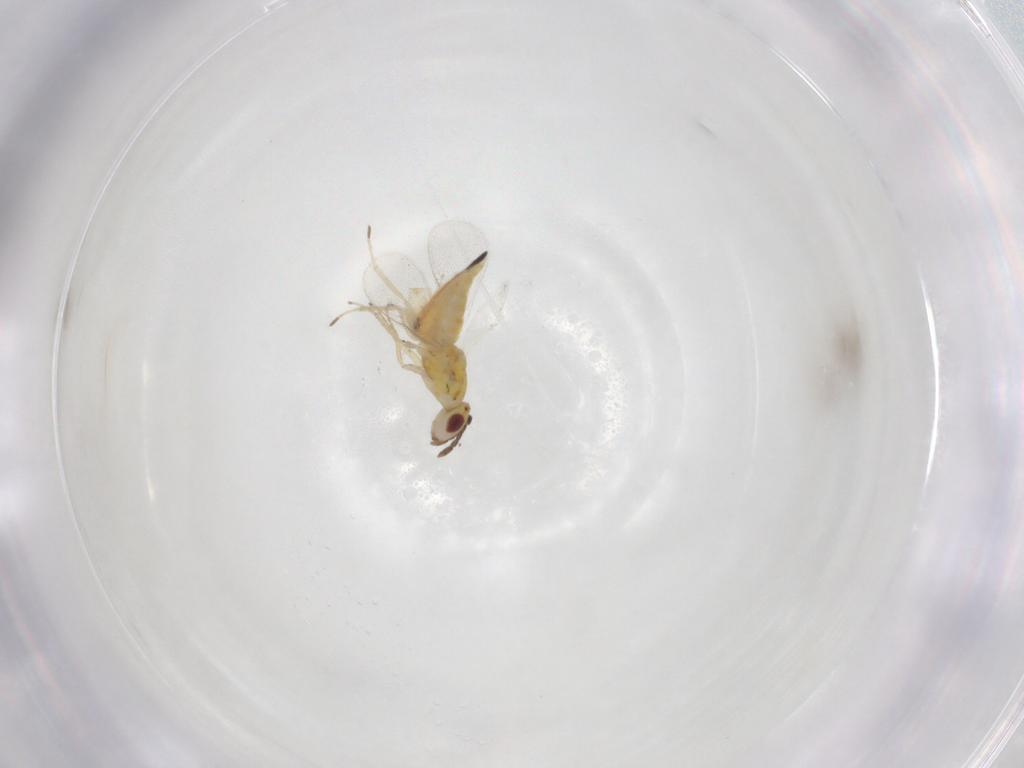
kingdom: Animalia
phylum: Arthropoda
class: Insecta
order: Hymenoptera
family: Eulophidae
